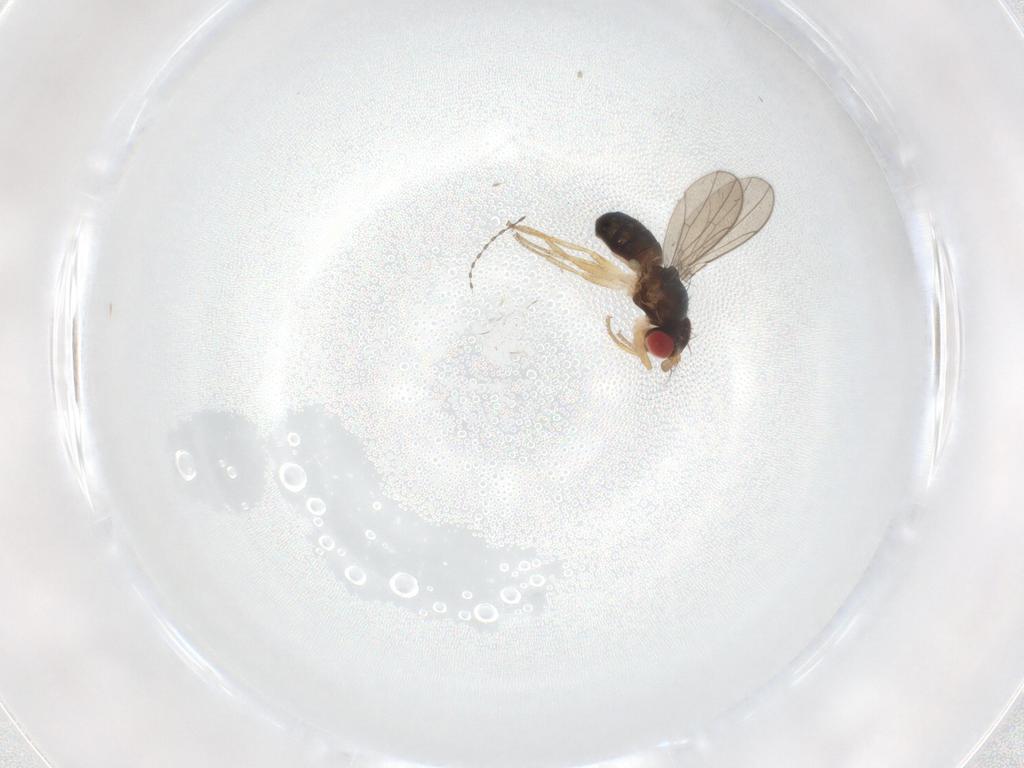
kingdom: Animalia
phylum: Arthropoda
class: Insecta
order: Diptera
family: Drosophilidae
